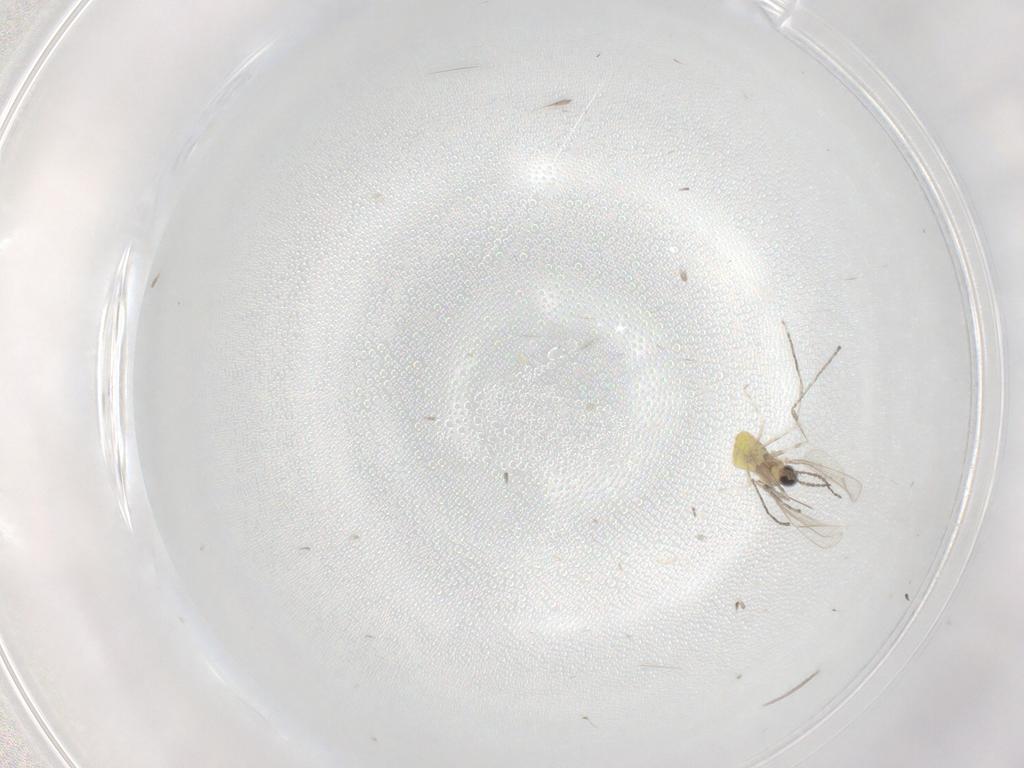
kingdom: Animalia
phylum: Arthropoda
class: Insecta
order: Diptera
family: Cecidomyiidae
